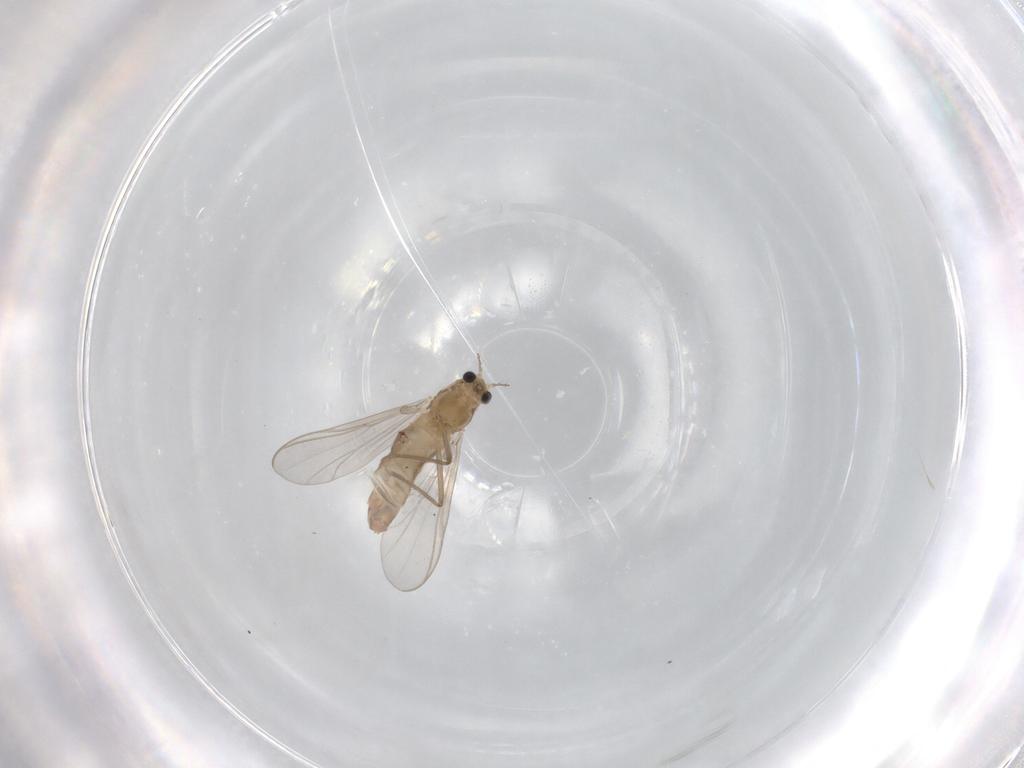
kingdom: Animalia
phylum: Arthropoda
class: Insecta
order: Diptera
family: Chironomidae
